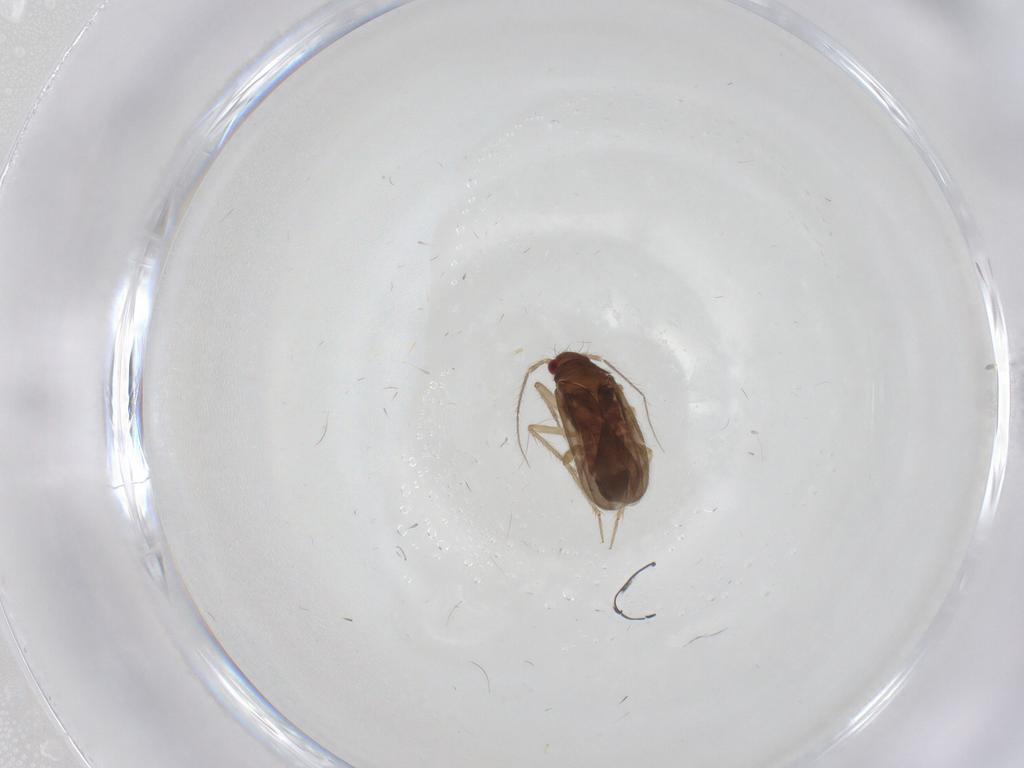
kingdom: Animalia
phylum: Arthropoda
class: Insecta
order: Hemiptera
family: Ceratocombidae
